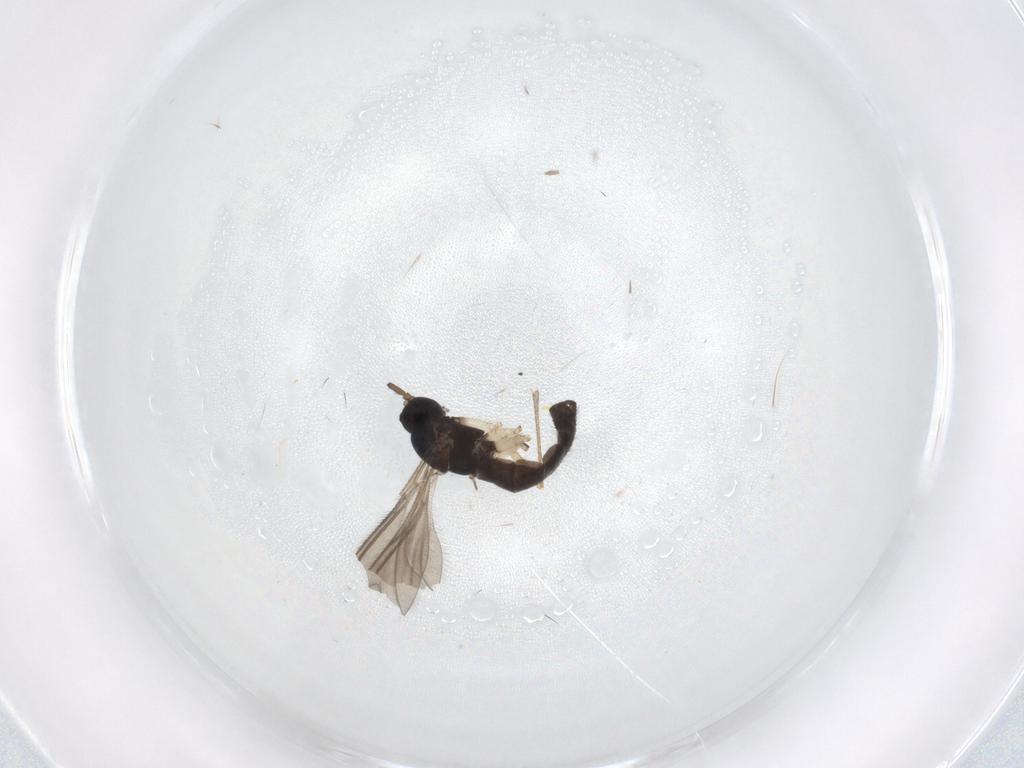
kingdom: Animalia
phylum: Arthropoda
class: Insecta
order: Diptera
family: Sciaridae
